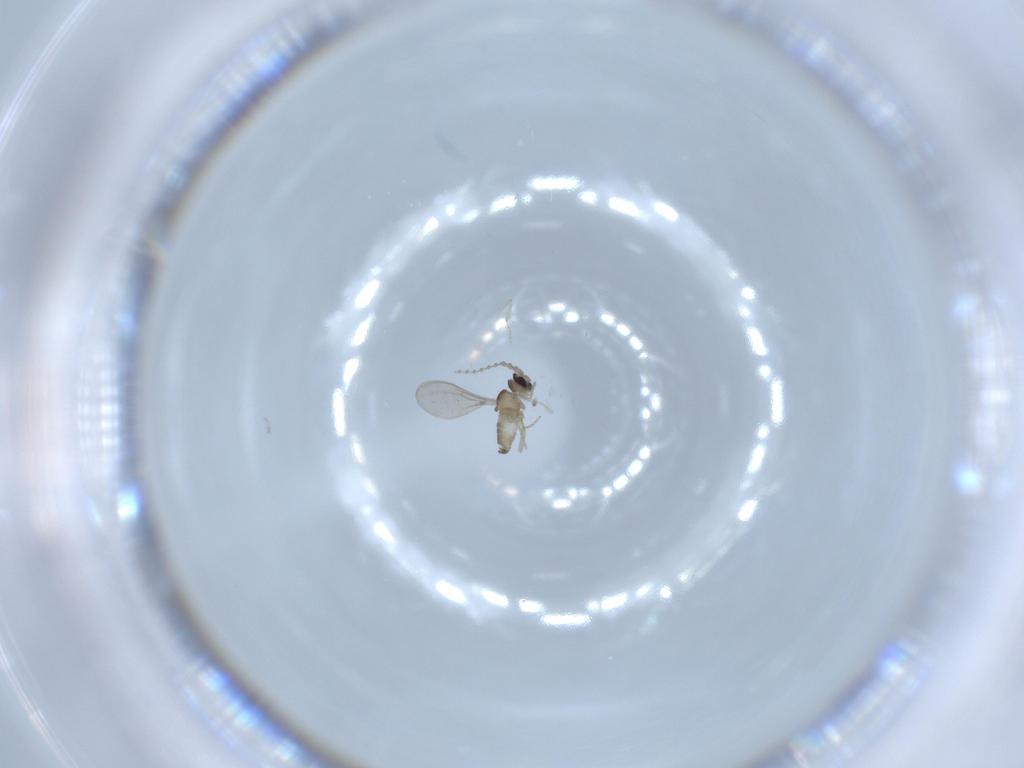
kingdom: Animalia
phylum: Arthropoda
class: Insecta
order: Diptera
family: Cecidomyiidae
